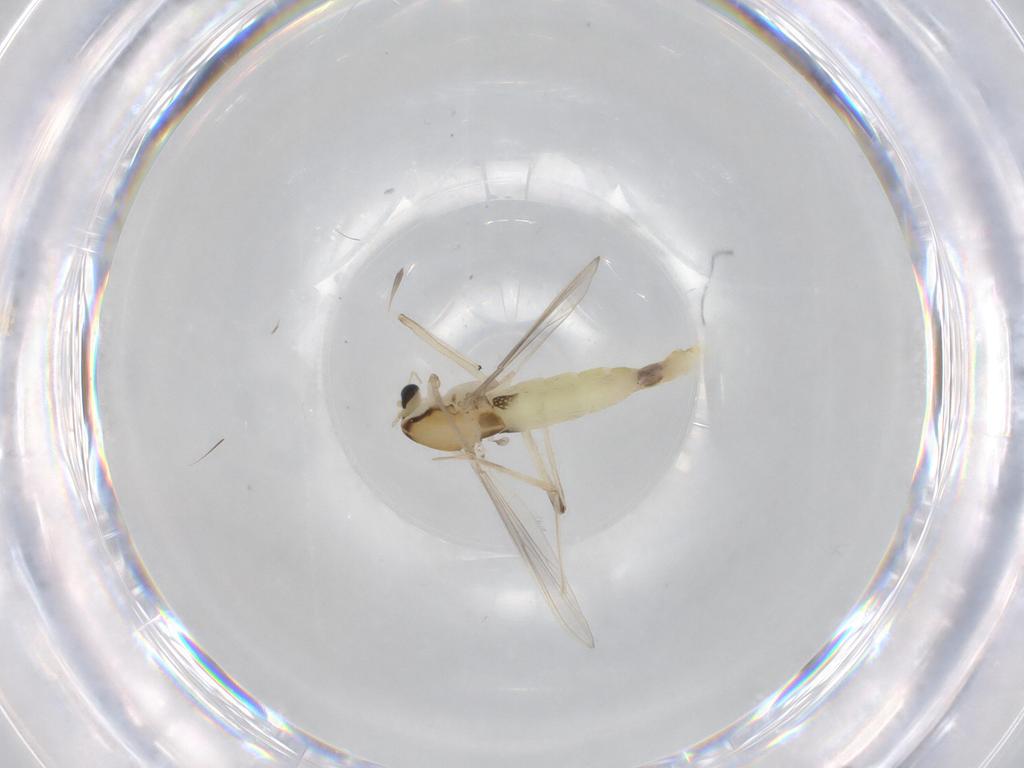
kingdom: Animalia
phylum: Arthropoda
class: Insecta
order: Diptera
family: Chironomidae
